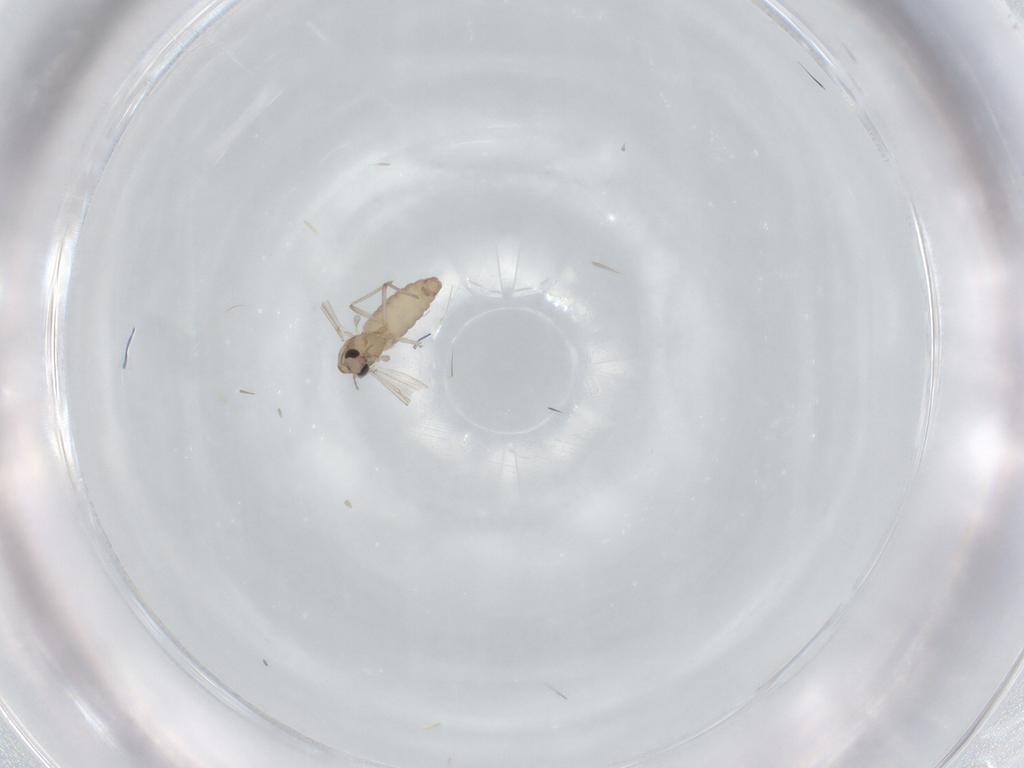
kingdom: Animalia
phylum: Arthropoda
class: Insecta
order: Diptera
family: Chironomidae
